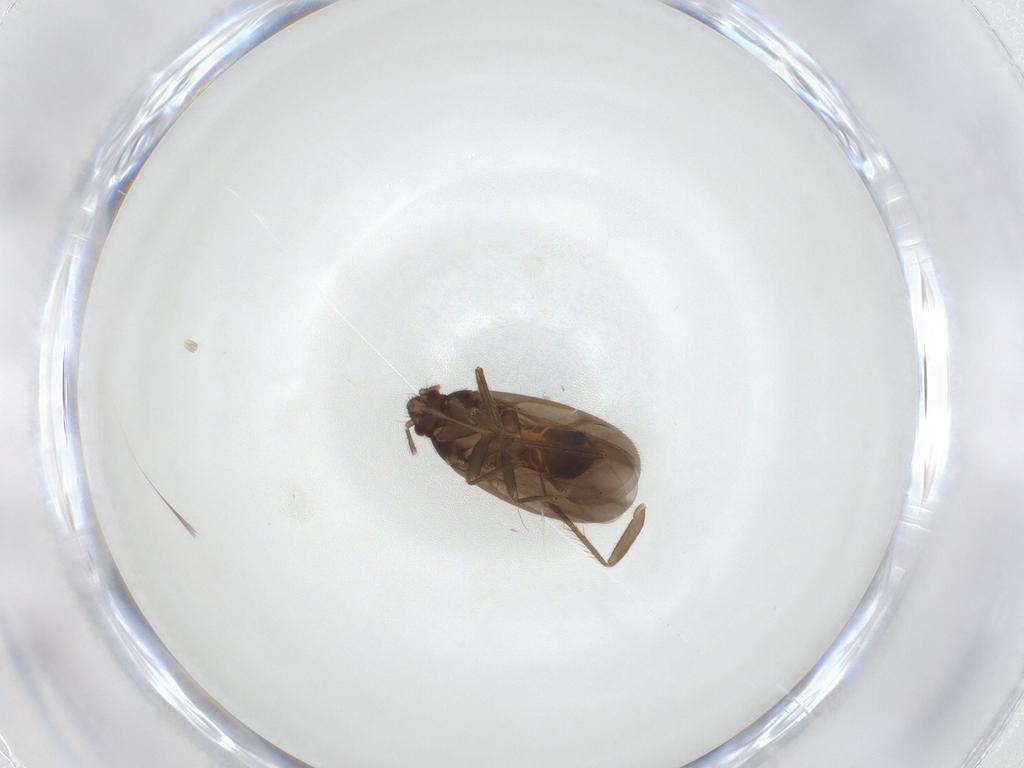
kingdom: Animalia
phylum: Arthropoda
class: Insecta
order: Hemiptera
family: Ceratocombidae
